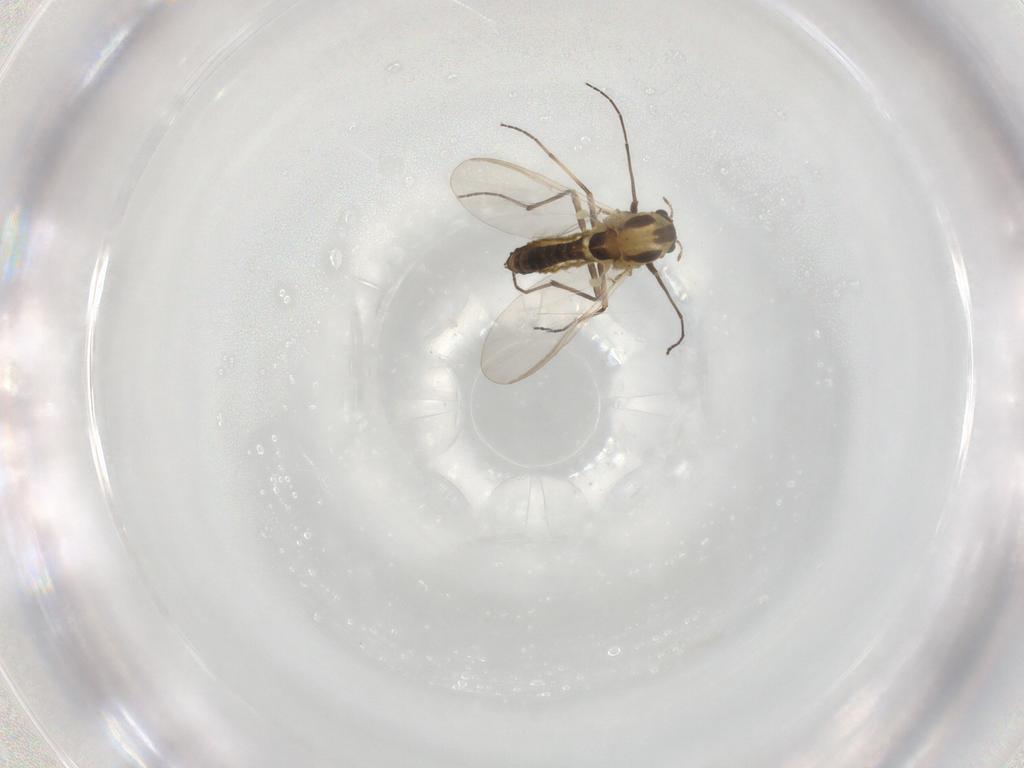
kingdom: Animalia
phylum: Arthropoda
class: Insecta
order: Diptera
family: Chironomidae
